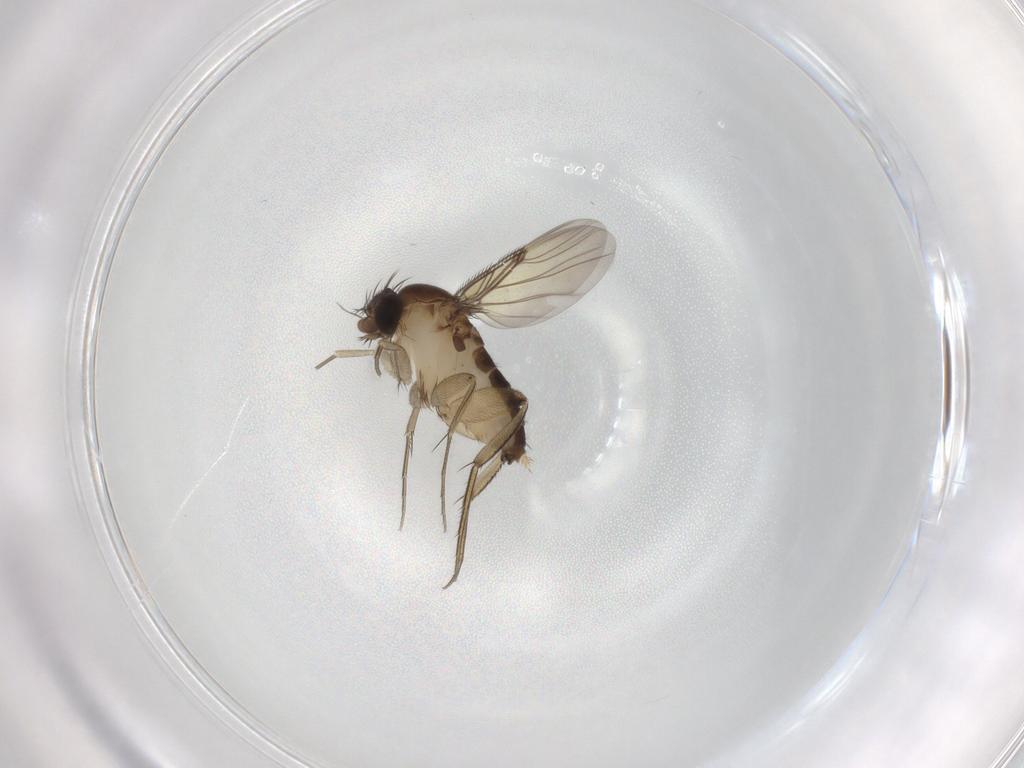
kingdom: Animalia
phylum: Arthropoda
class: Insecta
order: Diptera
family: Phoridae
